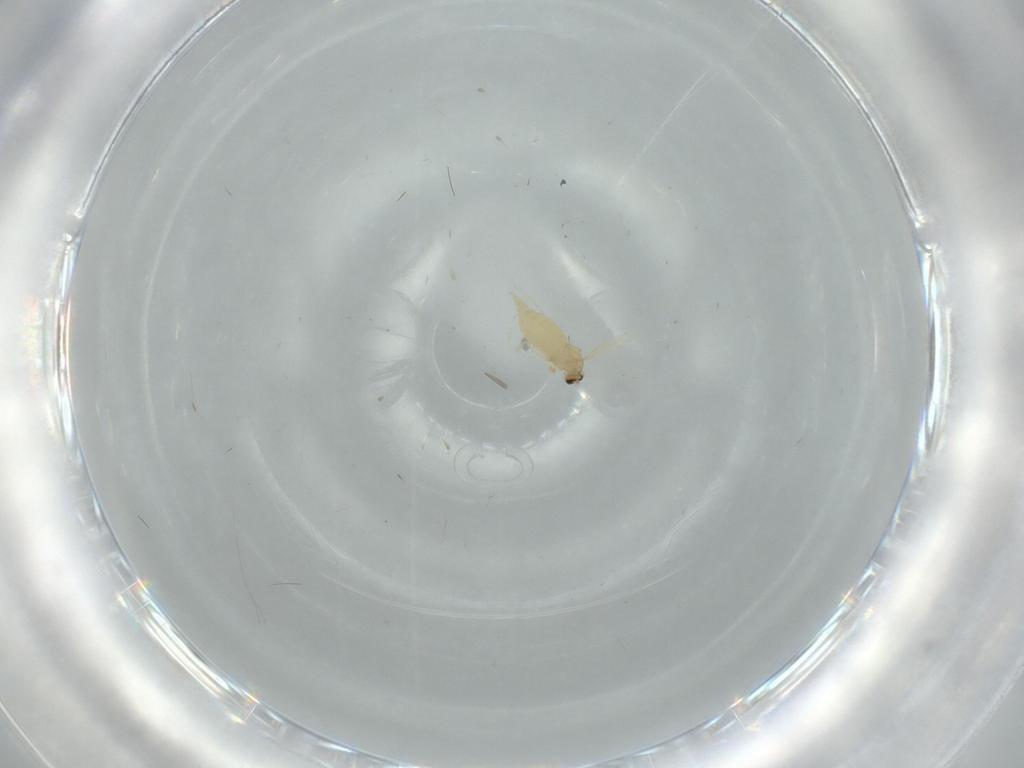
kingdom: Animalia
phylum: Arthropoda
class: Insecta
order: Diptera
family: Tabanidae
